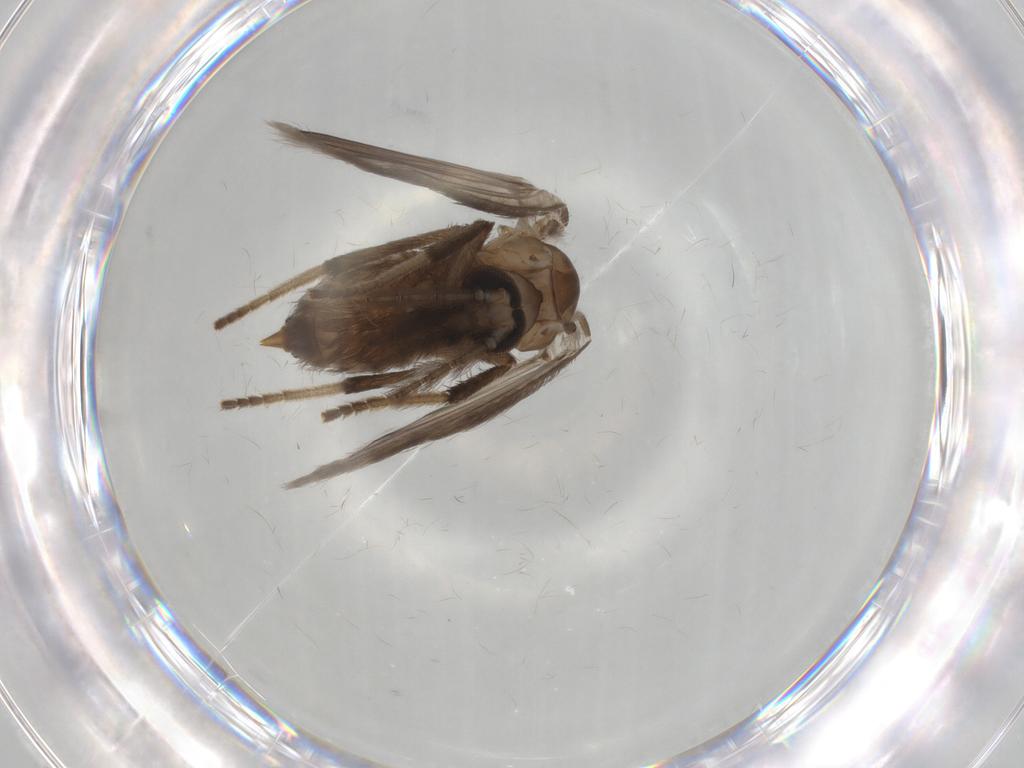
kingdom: Animalia
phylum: Arthropoda
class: Insecta
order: Diptera
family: Psychodidae
